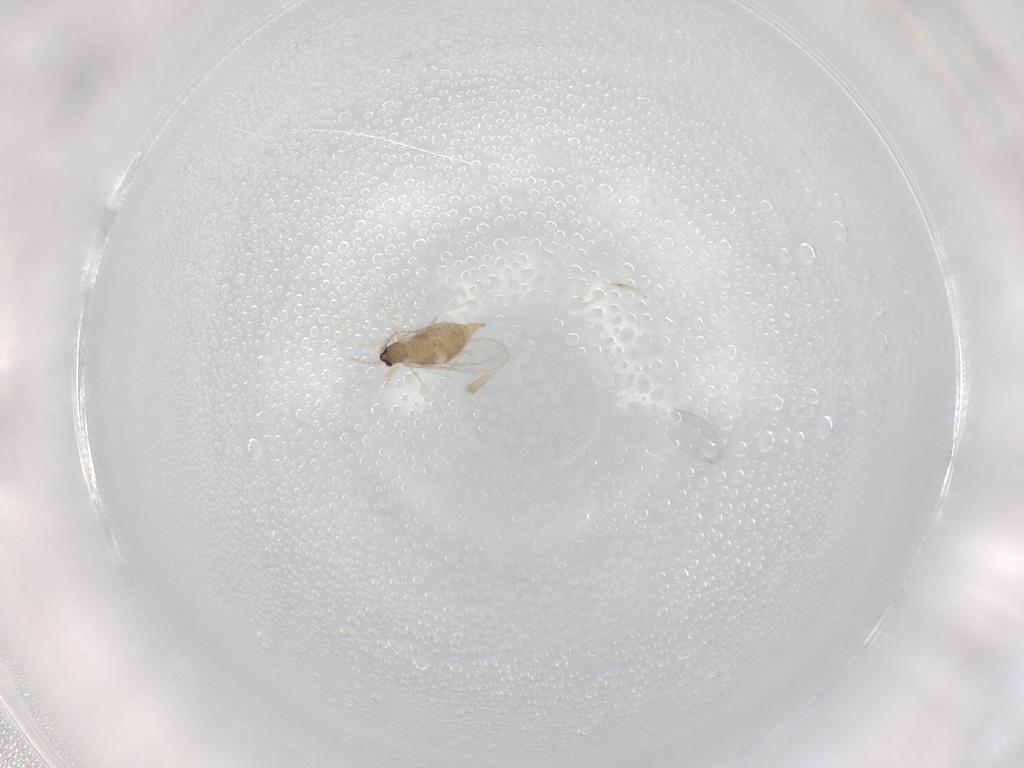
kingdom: Animalia
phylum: Arthropoda
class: Insecta
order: Diptera
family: Cecidomyiidae
